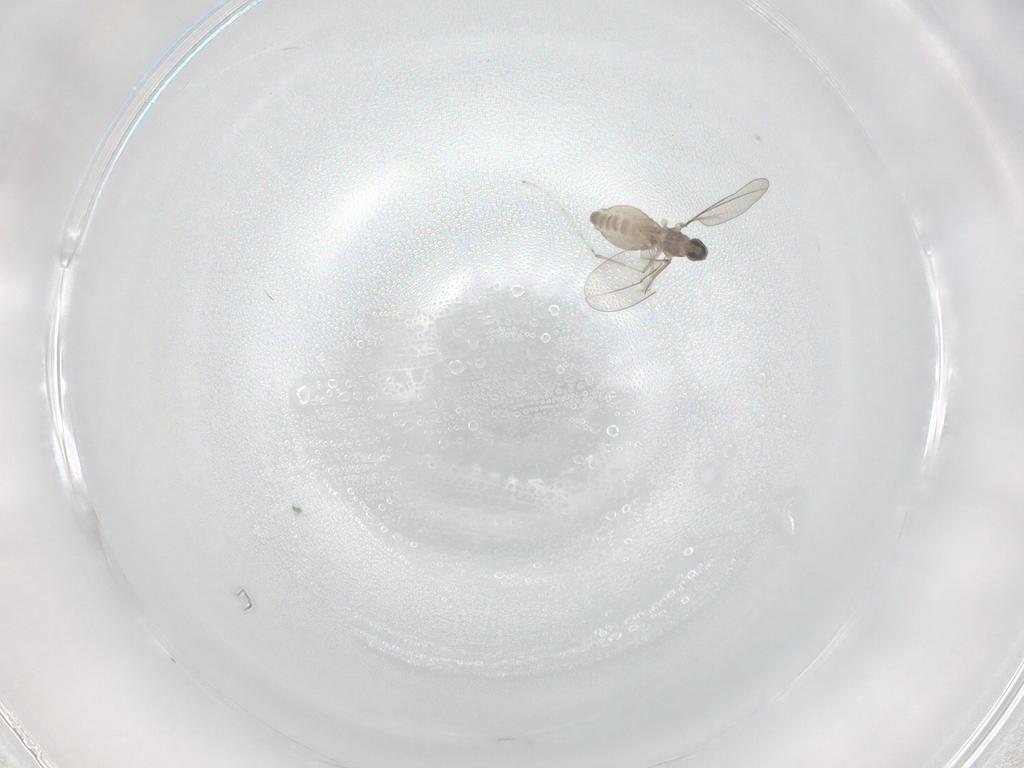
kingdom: Animalia
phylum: Arthropoda
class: Insecta
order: Diptera
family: Cecidomyiidae
